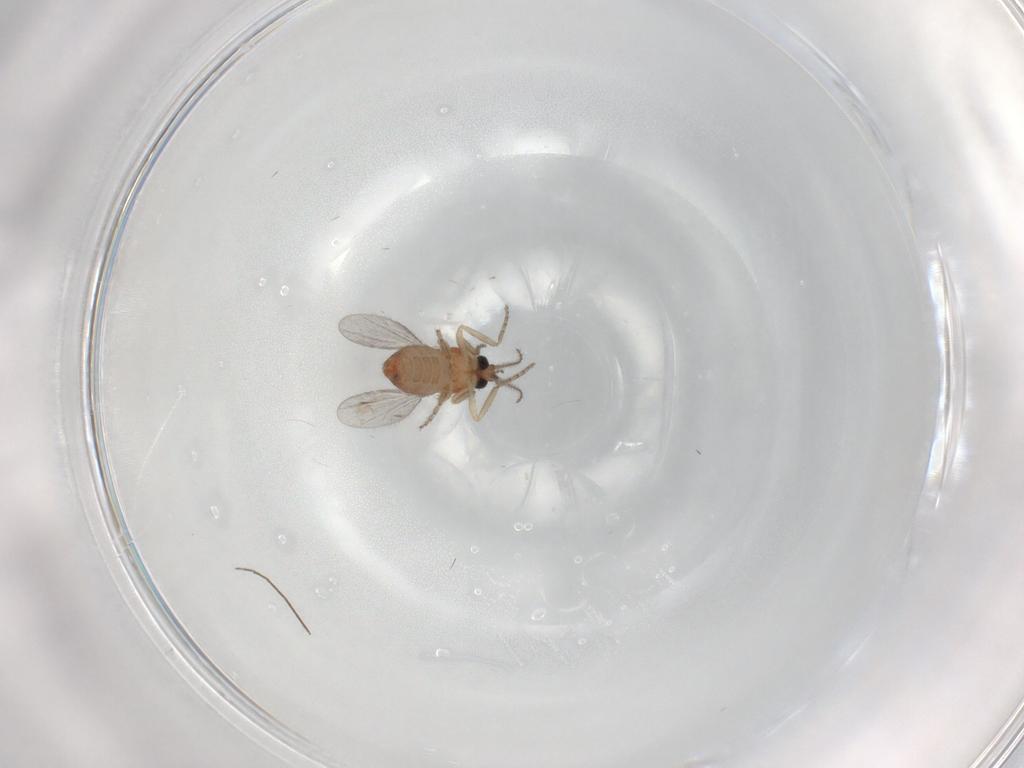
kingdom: Animalia
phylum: Arthropoda
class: Insecta
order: Diptera
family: Ceratopogonidae
